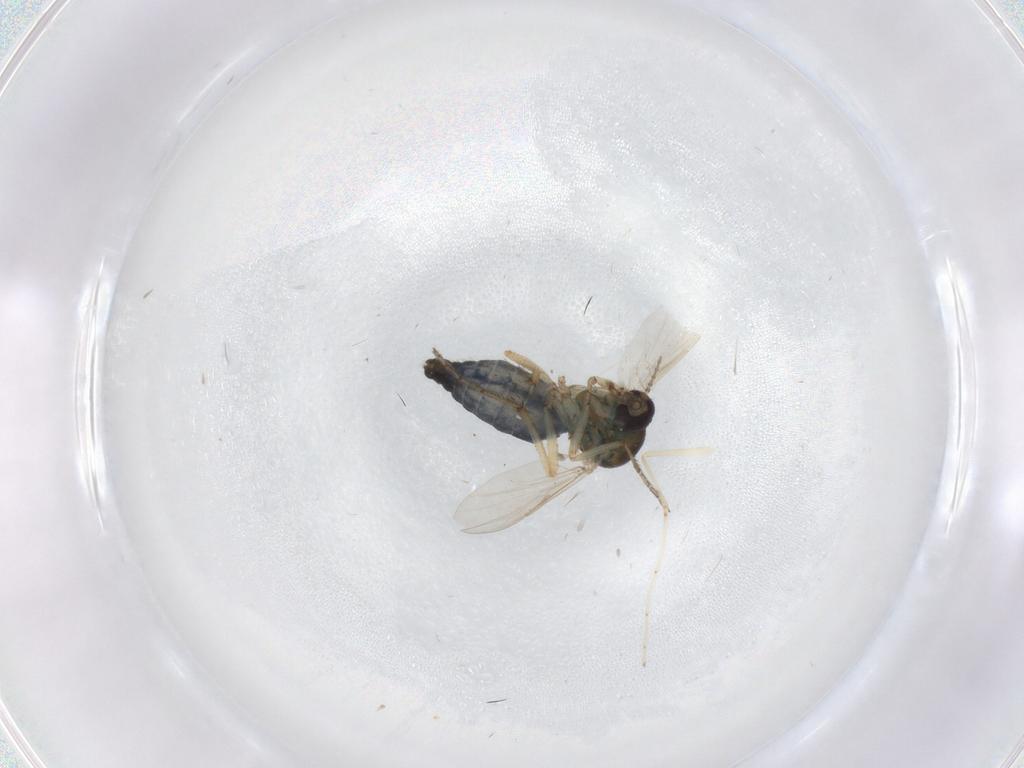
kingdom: Animalia
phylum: Arthropoda
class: Insecta
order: Diptera
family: Ceratopogonidae
